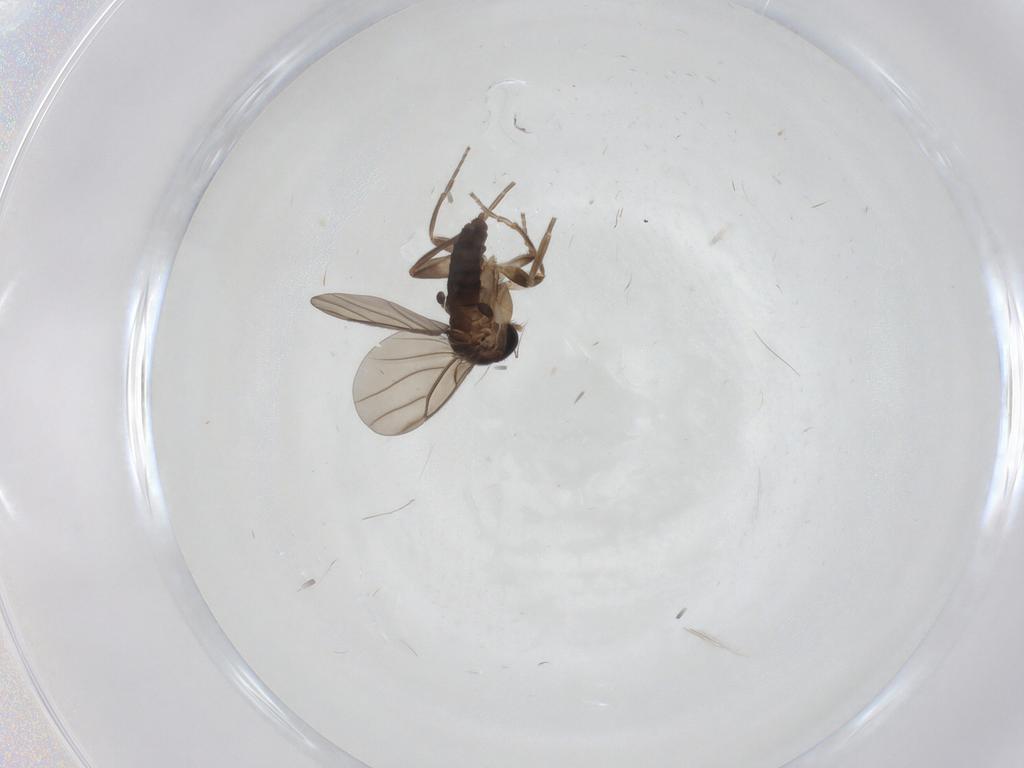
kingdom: Animalia
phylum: Arthropoda
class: Insecta
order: Diptera
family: Cecidomyiidae
